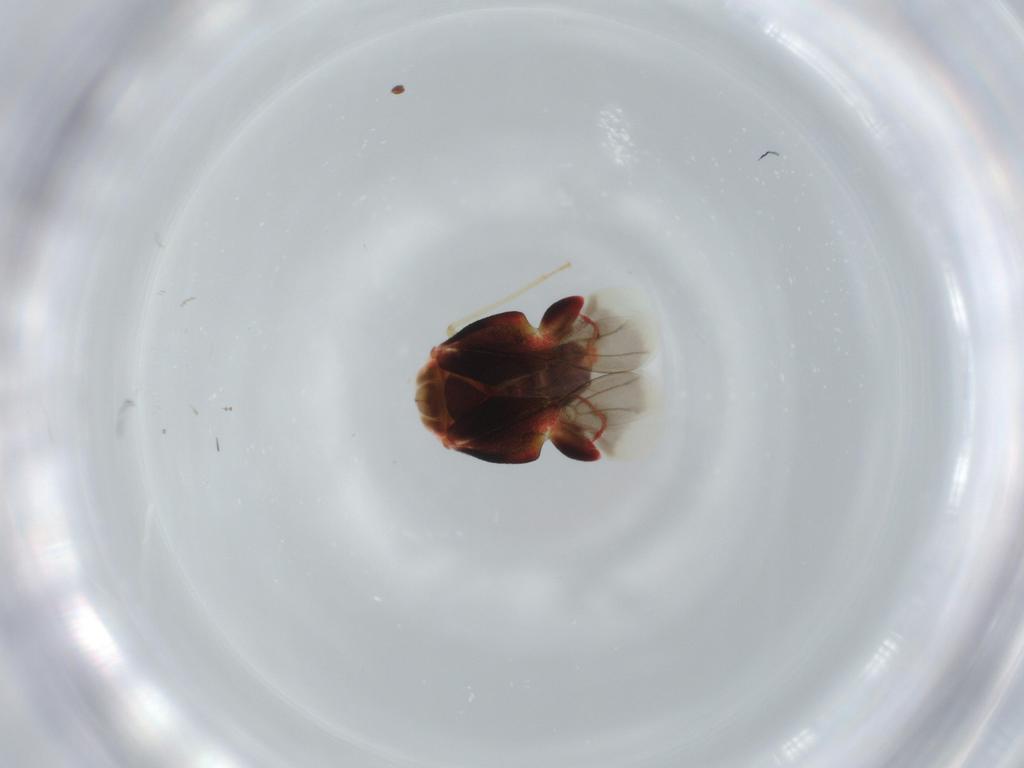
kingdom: Animalia
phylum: Arthropoda
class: Insecta
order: Hemiptera
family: Miridae
